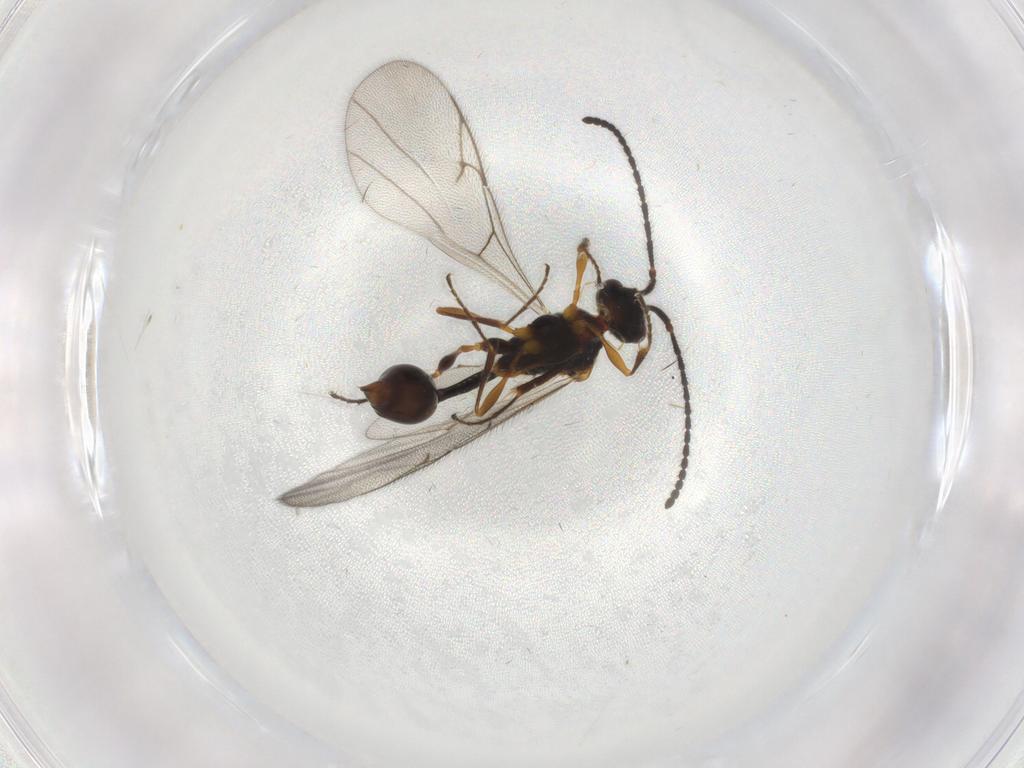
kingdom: Animalia
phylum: Arthropoda
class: Insecta
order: Hymenoptera
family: Diapriidae
